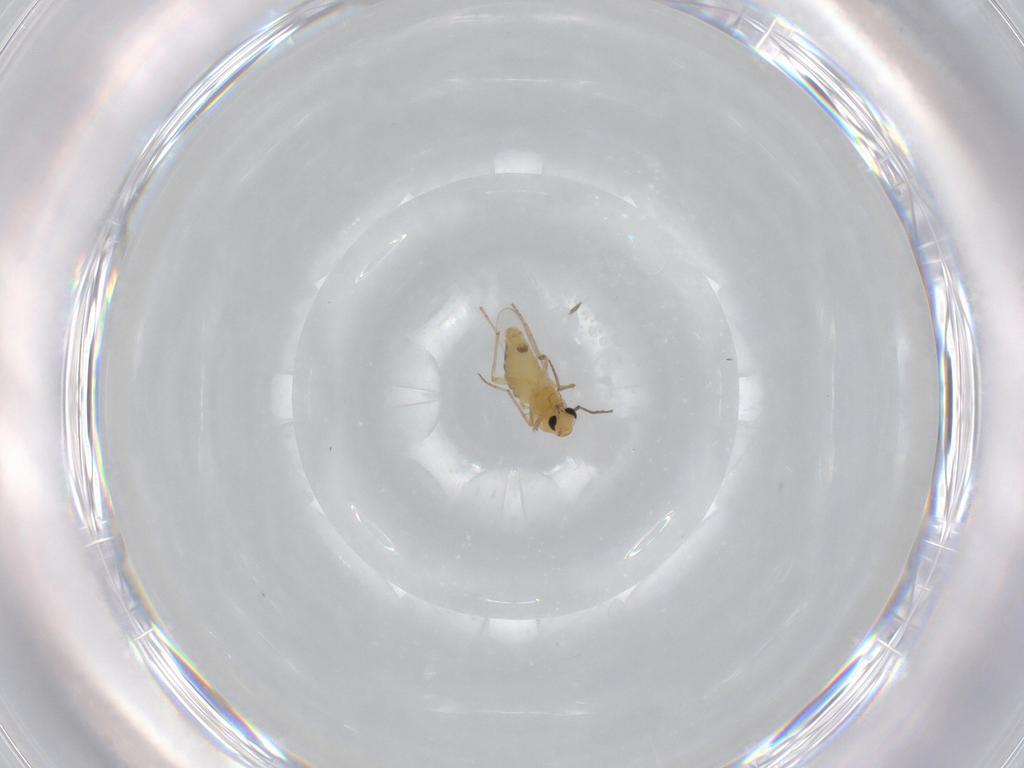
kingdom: Animalia
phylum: Arthropoda
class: Insecta
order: Diptera
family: Chironomidae
